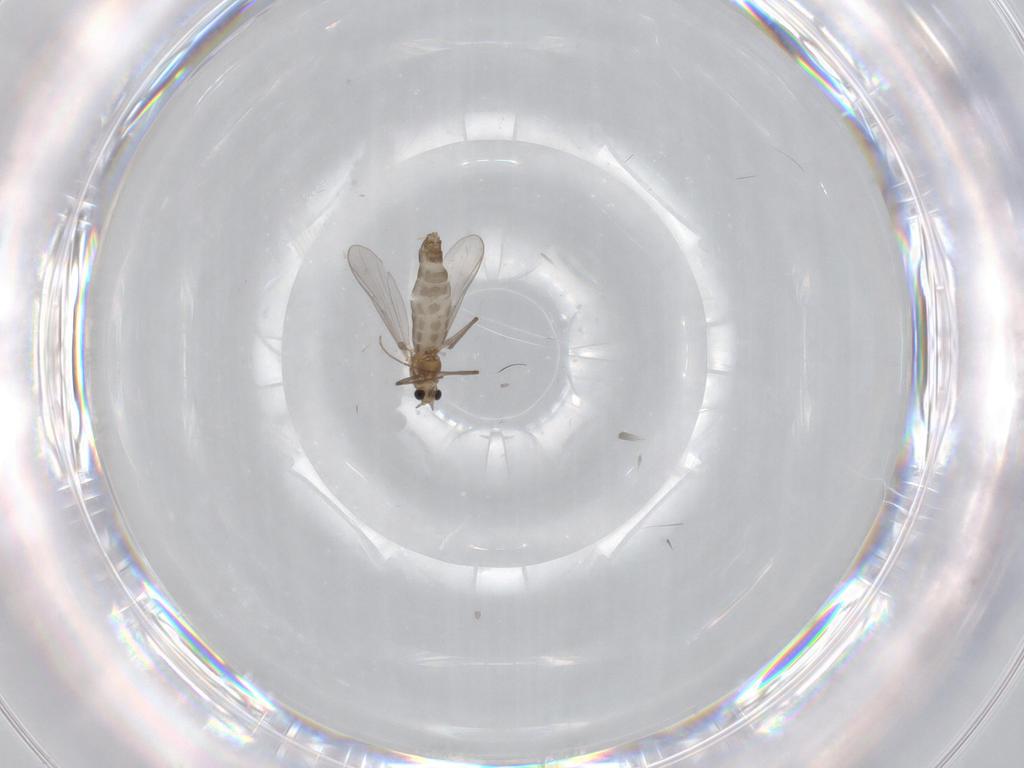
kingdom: Animalia
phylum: Arthropoda
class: Insecta
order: Diptera
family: Chironomidae
